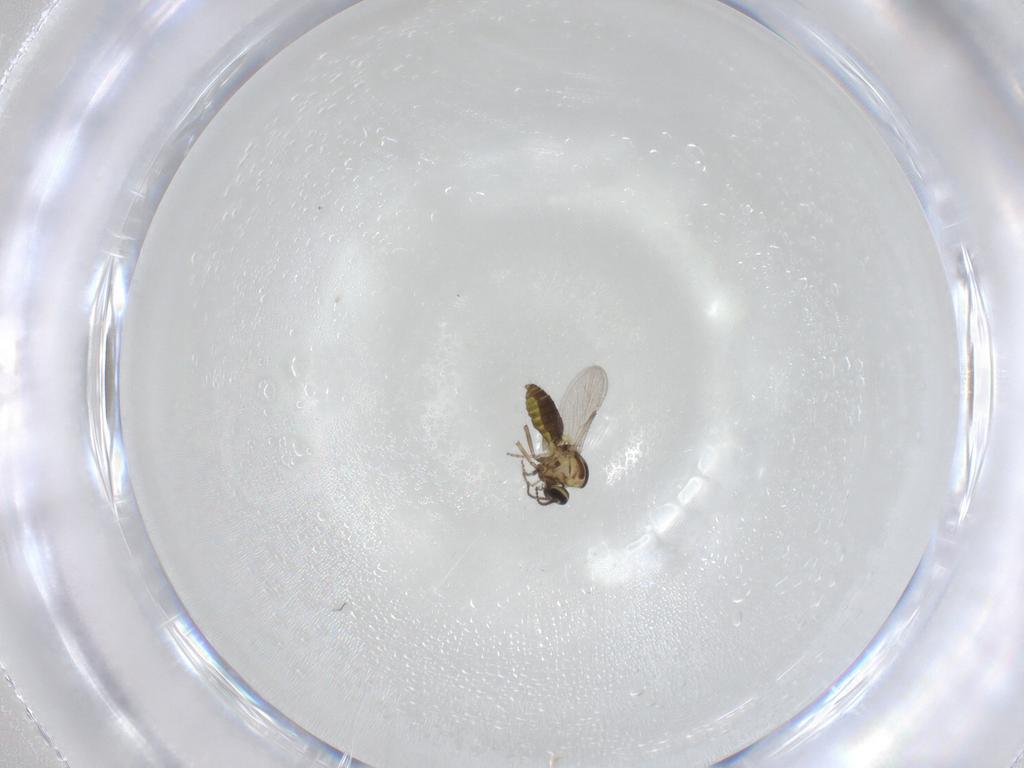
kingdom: Animalia
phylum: Arthropoda
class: Insecta
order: Diptera
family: Ceratopogonidae
